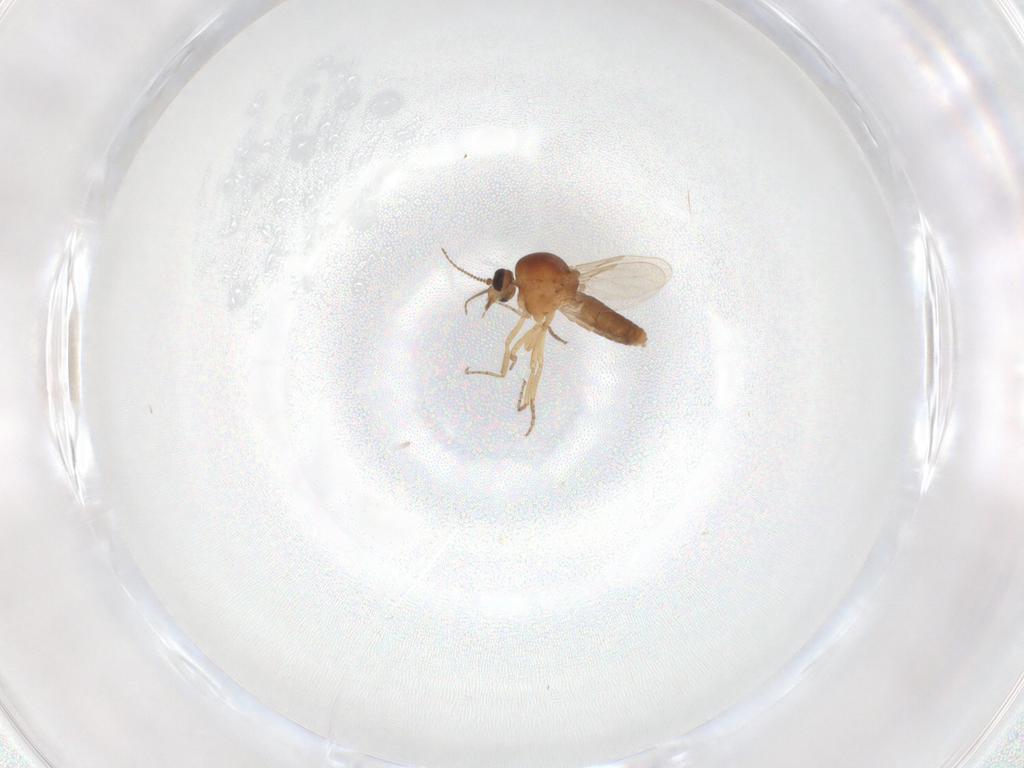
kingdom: Animalia
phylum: Arthropoda
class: Insecta
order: Diptera
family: Ceratopogonidae
